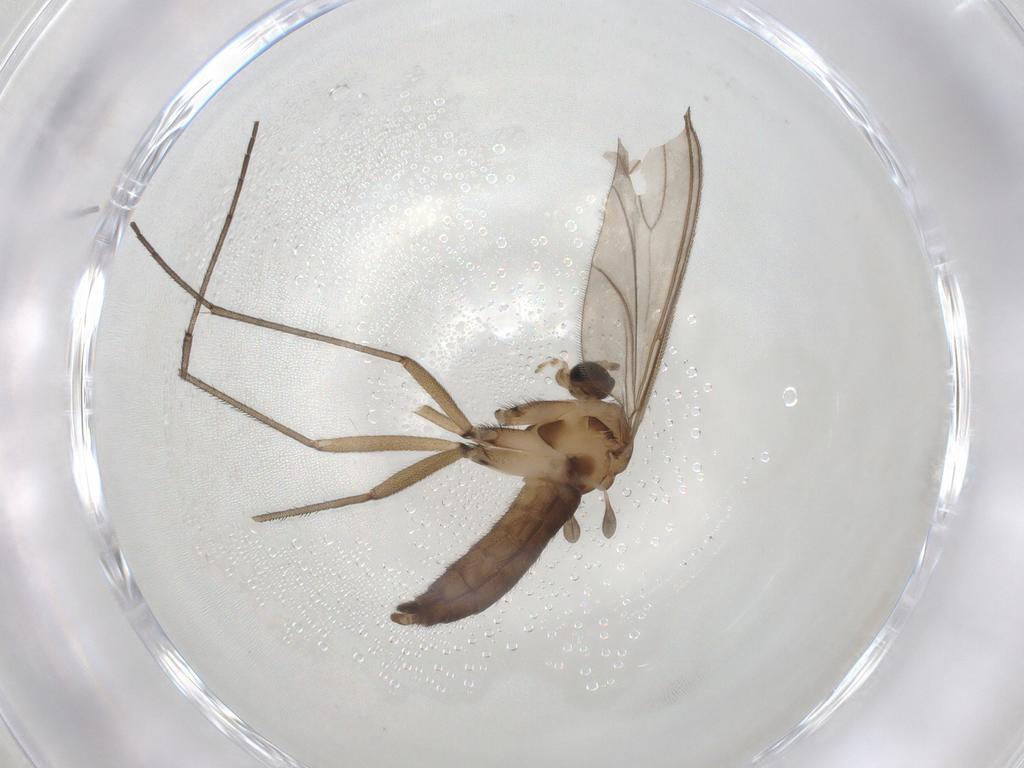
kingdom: Animalia
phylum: Arthropoda
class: Insecta
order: Diptera
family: Sciaridae
